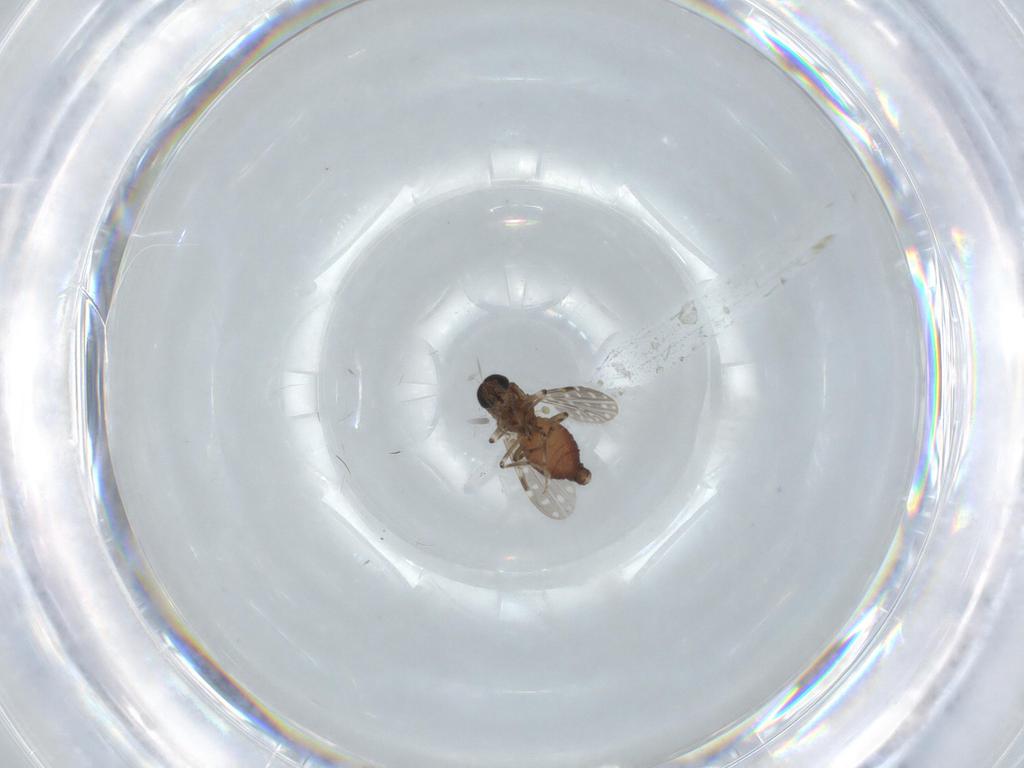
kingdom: Animalia
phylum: Arthropoda
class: Insecta
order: Diptera
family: Ceratopogonidae
